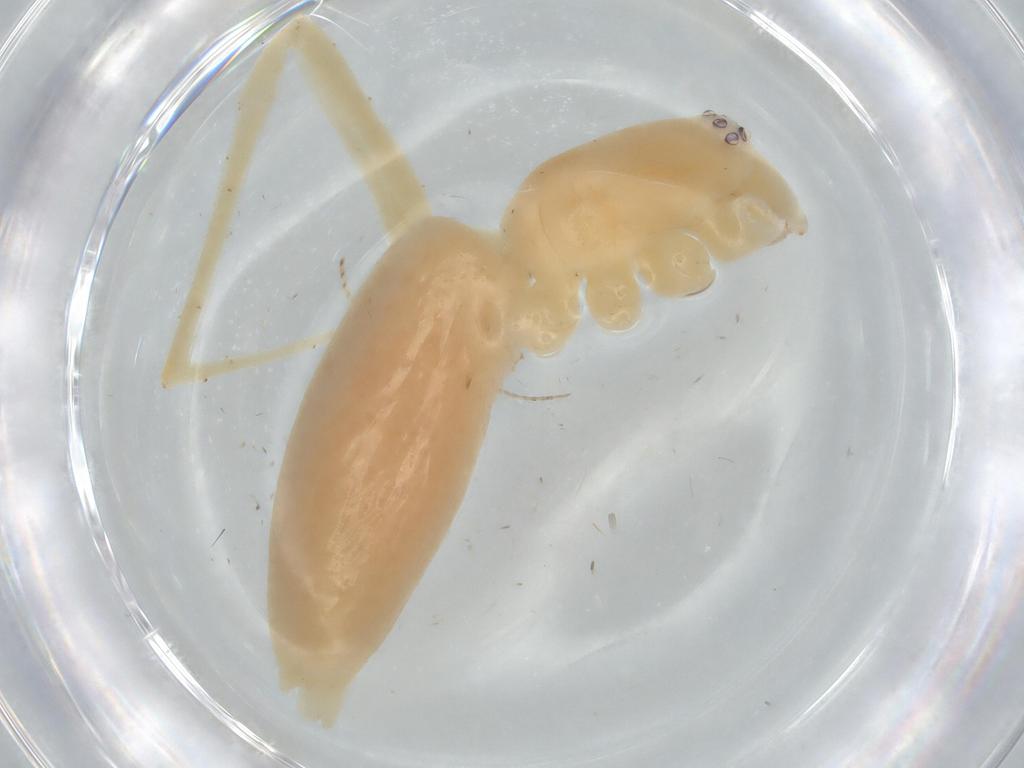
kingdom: Animalia
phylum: Arthropoda
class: Arachnida
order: Araneae
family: Anyphaenidae
